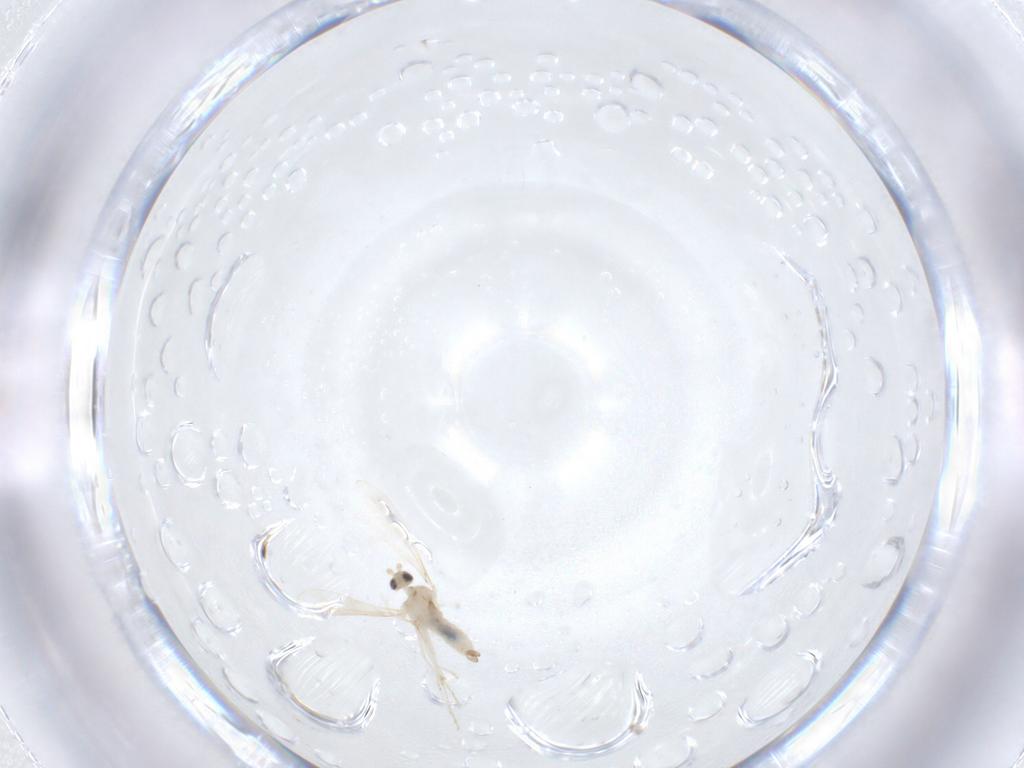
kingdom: Animalia
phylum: Arthropoda
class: Insecta
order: Diptera
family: Cecidomyiidae
